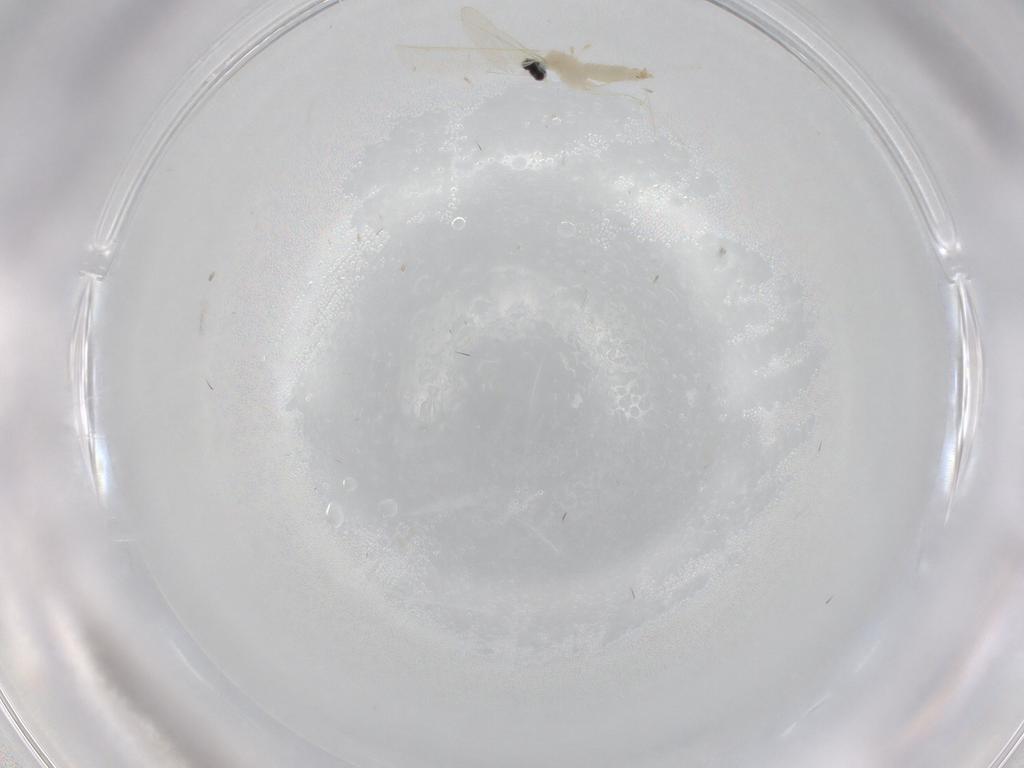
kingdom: Animalia
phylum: Arthropoda
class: Insecta
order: Diptera
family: Cecidomyiidae
